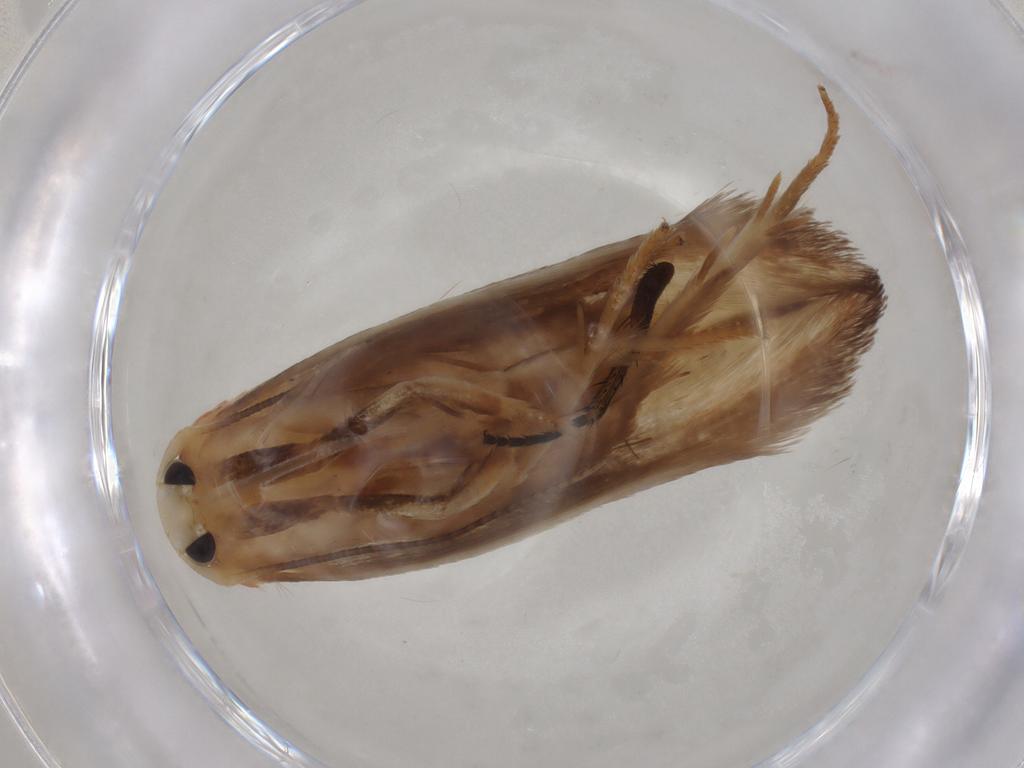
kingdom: Animalia
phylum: Arthropoda
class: Insecta
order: Lepidoptera
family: Geometridae
